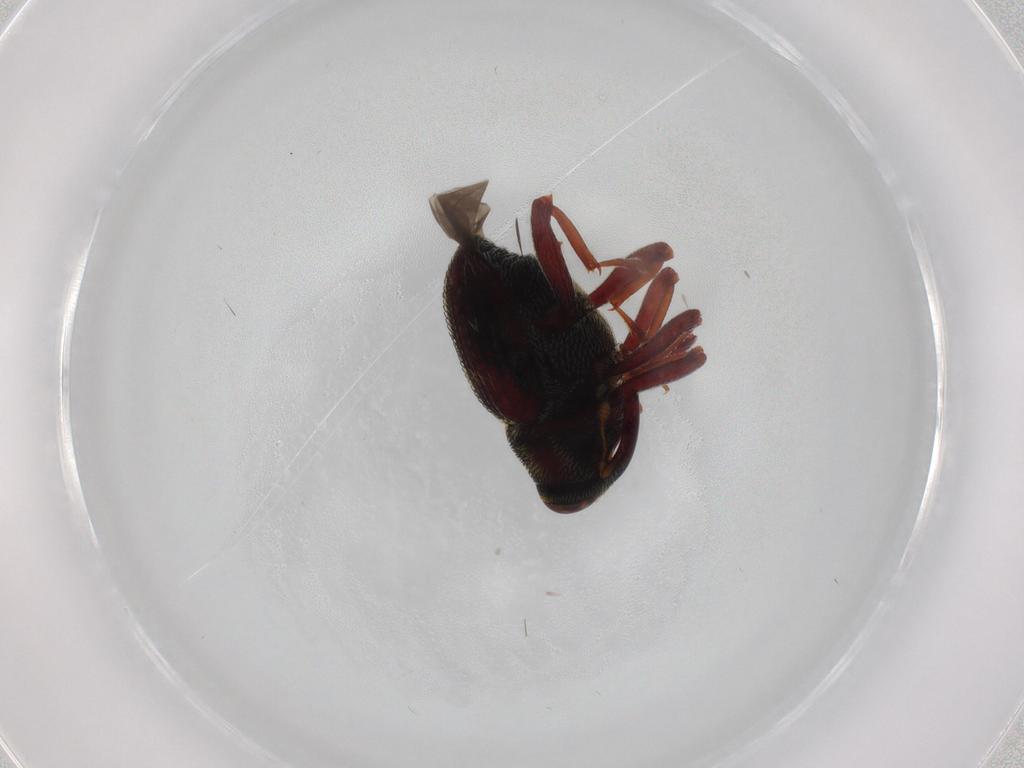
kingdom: Animalia
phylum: Arthropoda
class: Insecta
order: Coleoptera
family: Curculionidae
